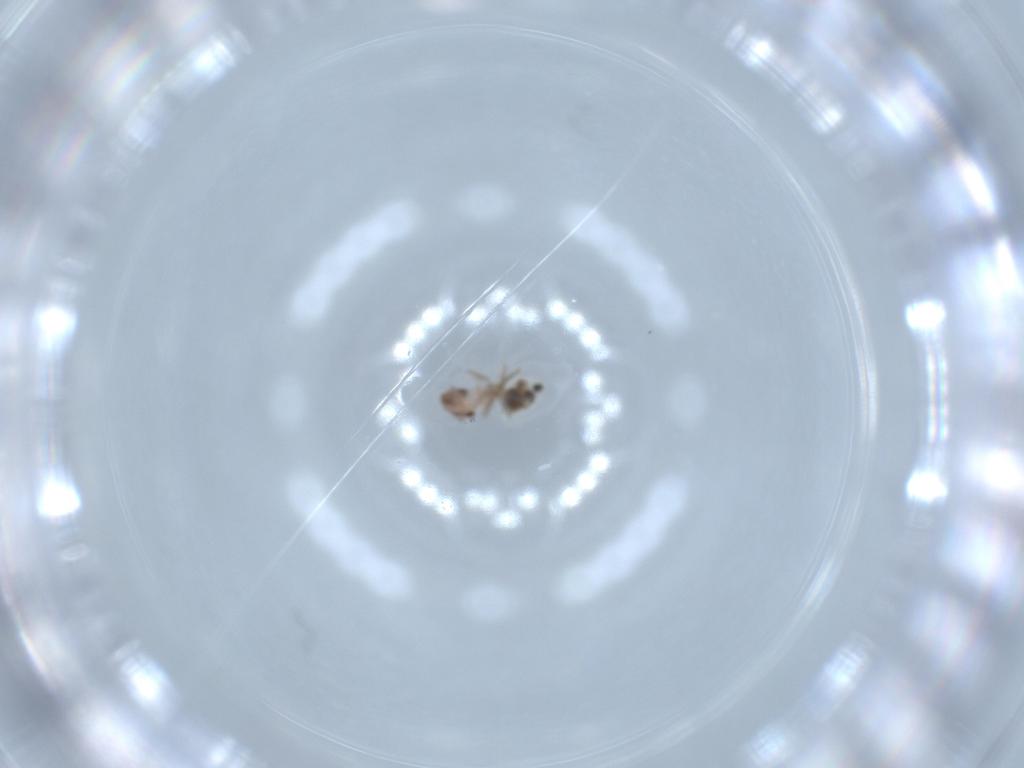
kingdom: Animalia
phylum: Arthropoda
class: Insecta
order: Psocodea
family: Lepidopsocidae
